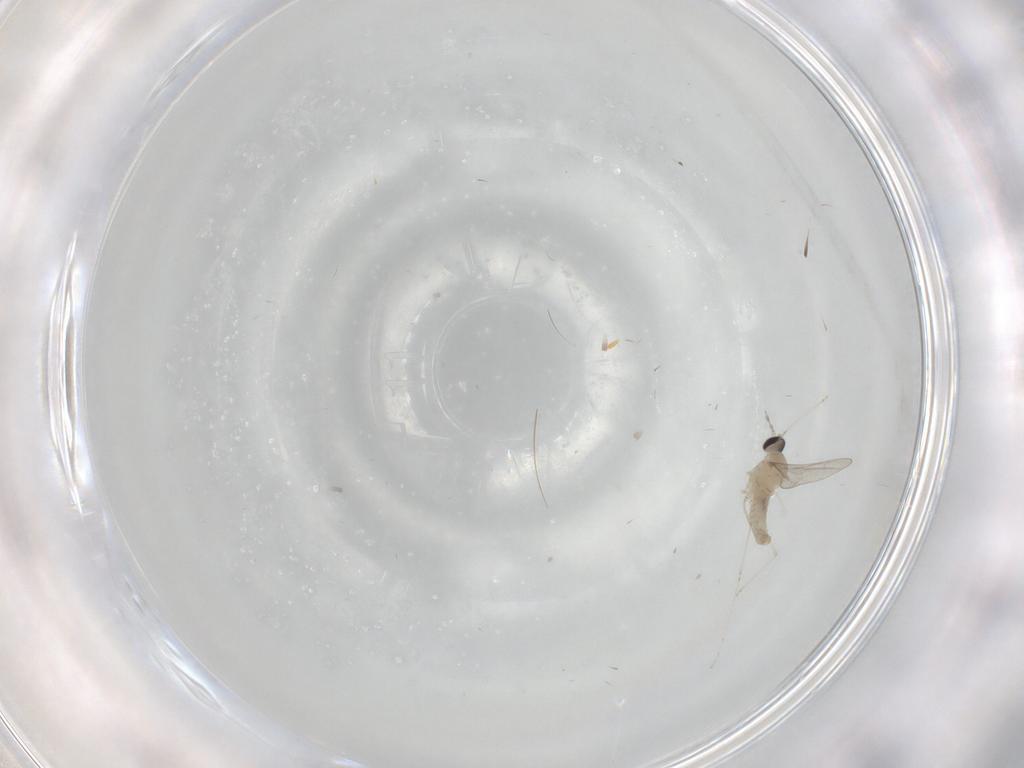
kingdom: Animalia
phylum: Arthropoda
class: Insecta
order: Diptera
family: Cecidomyiidae
